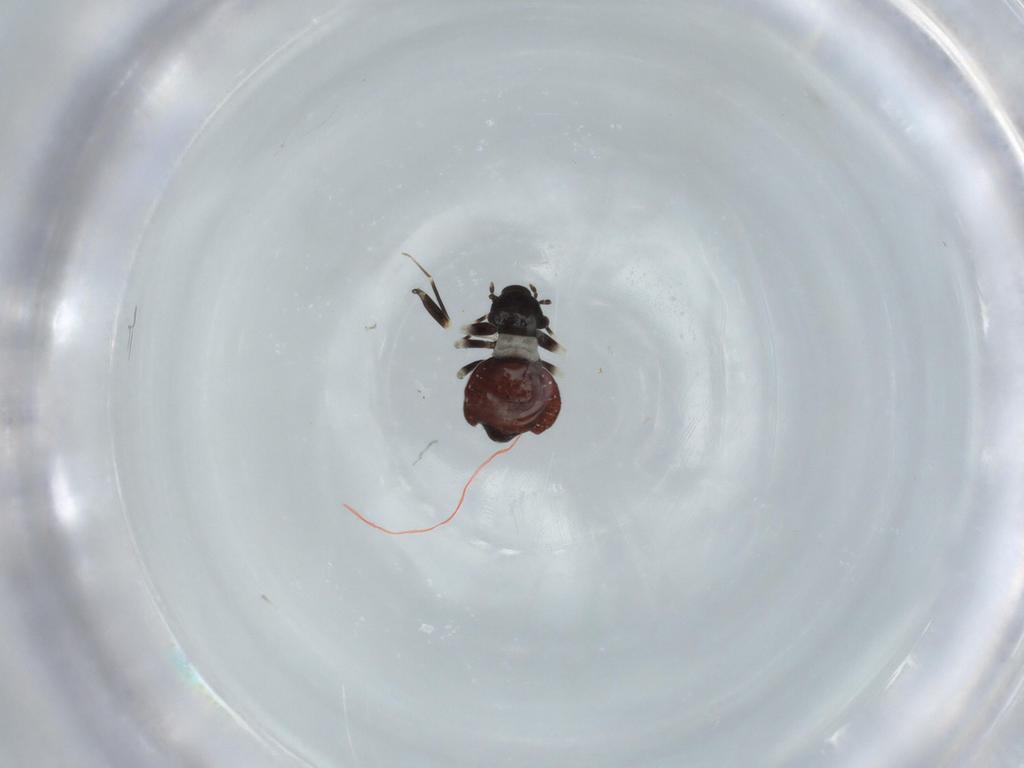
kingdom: Animalia
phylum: Arthropoda
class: Insecta
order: Psocodea
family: Lepidopsocidae
